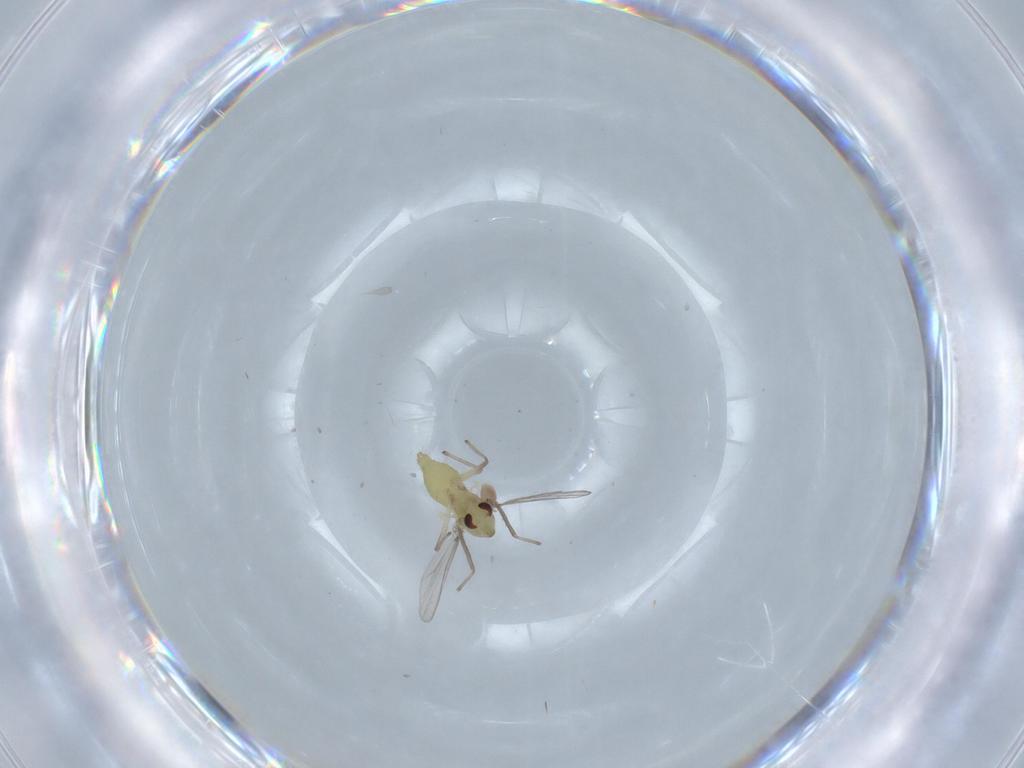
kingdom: Animalia
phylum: Arthropoda
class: Insecta
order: Diptera
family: Chironomidae
